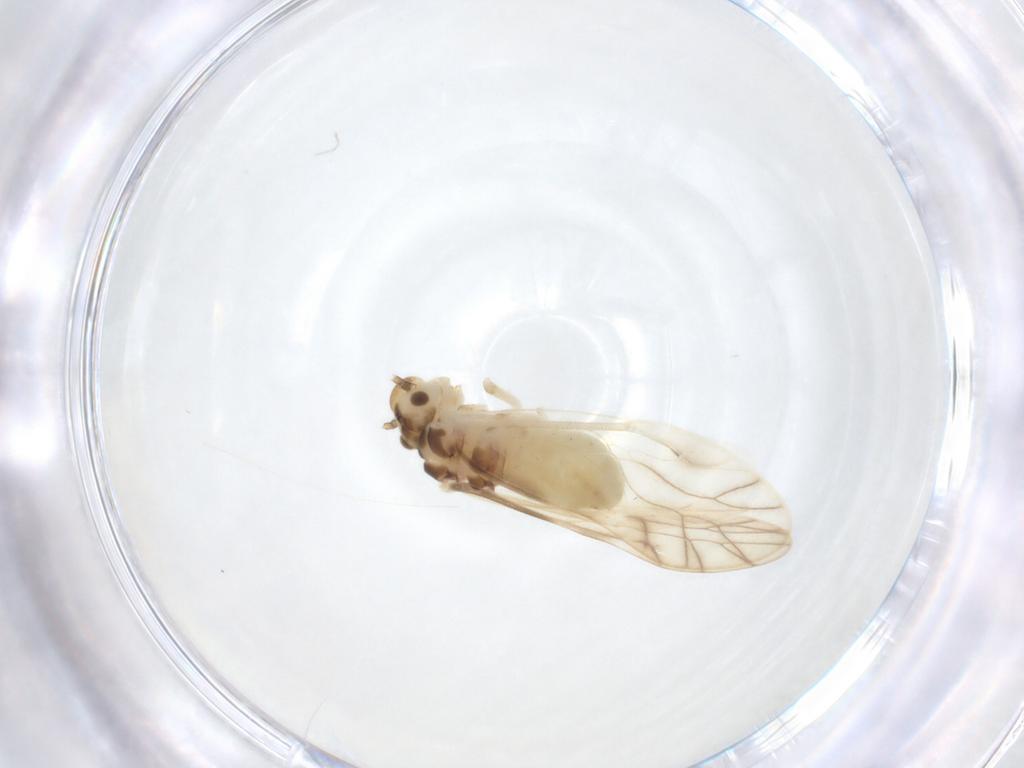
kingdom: Animalia
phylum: Arthropoda
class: Insecta
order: Psocodea
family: Caeciliusidae
